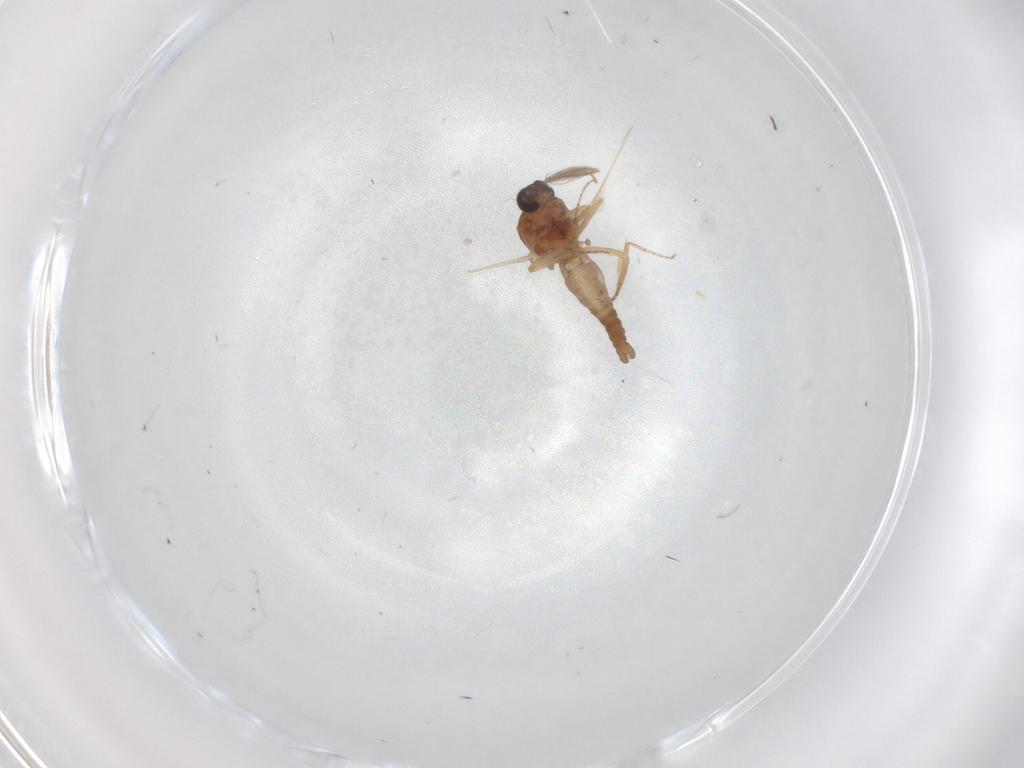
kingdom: Animalia
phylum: Arthropoda
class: Insecta
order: Diptera
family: Ceratopogonidae
